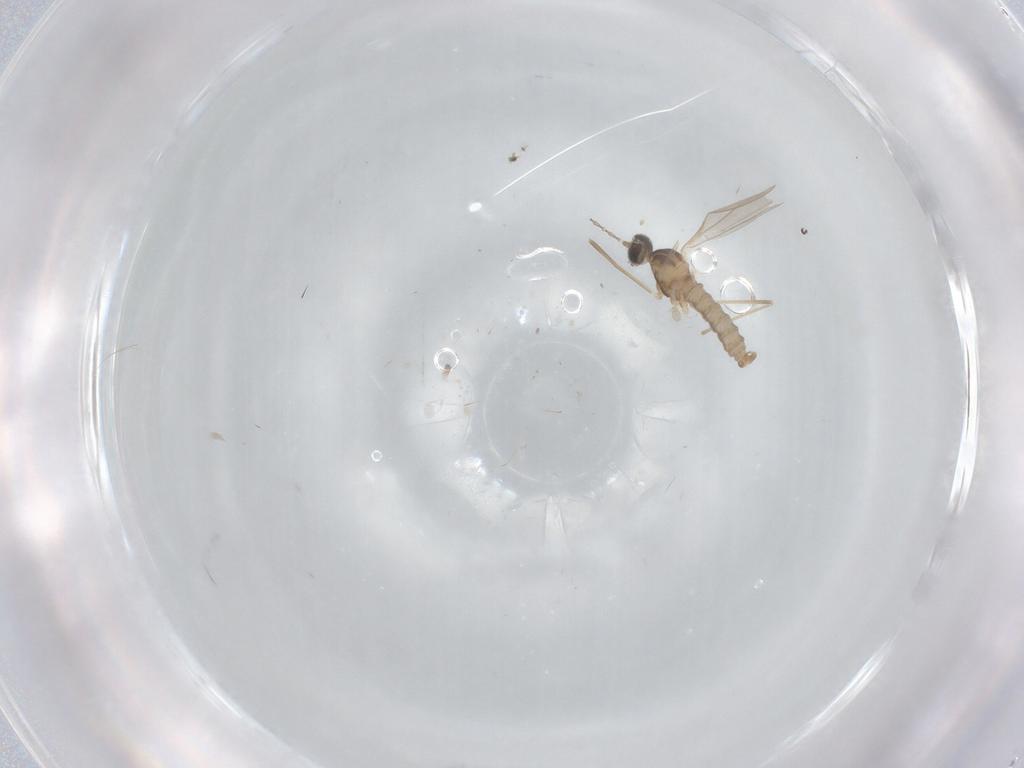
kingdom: Animalia
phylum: Arthropoda
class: Insecta
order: Diptera
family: Cecidomyiidae
